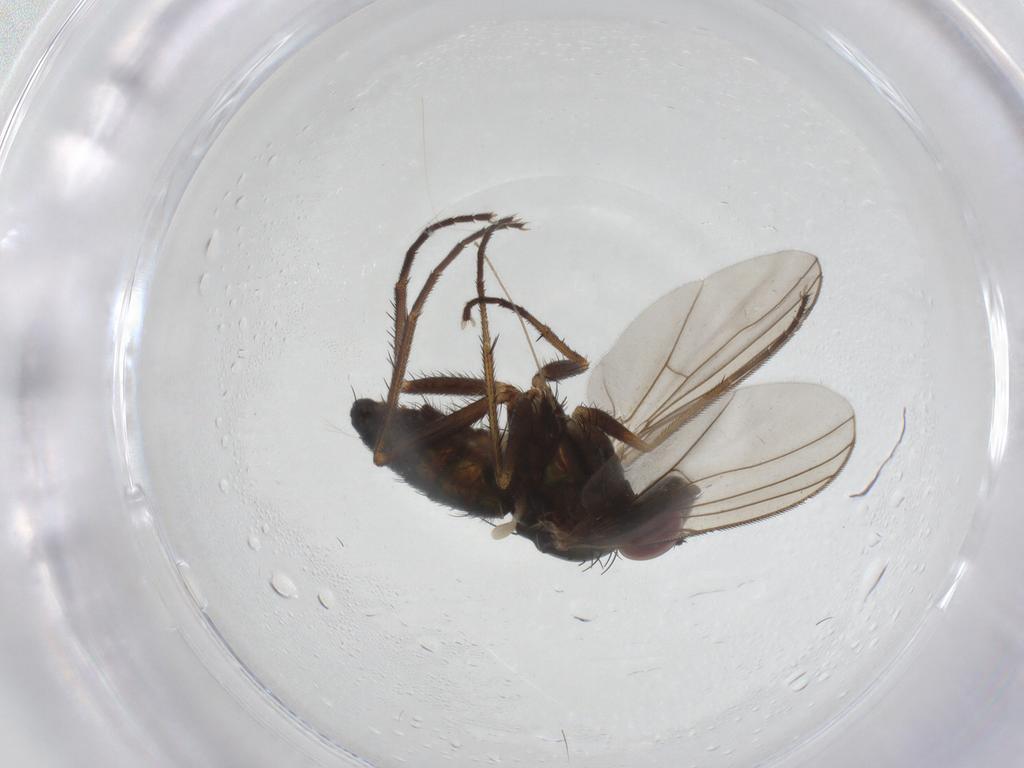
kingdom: Animalia
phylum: Arthropoda
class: Insecta
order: Diptera
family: Dolichopodidae
